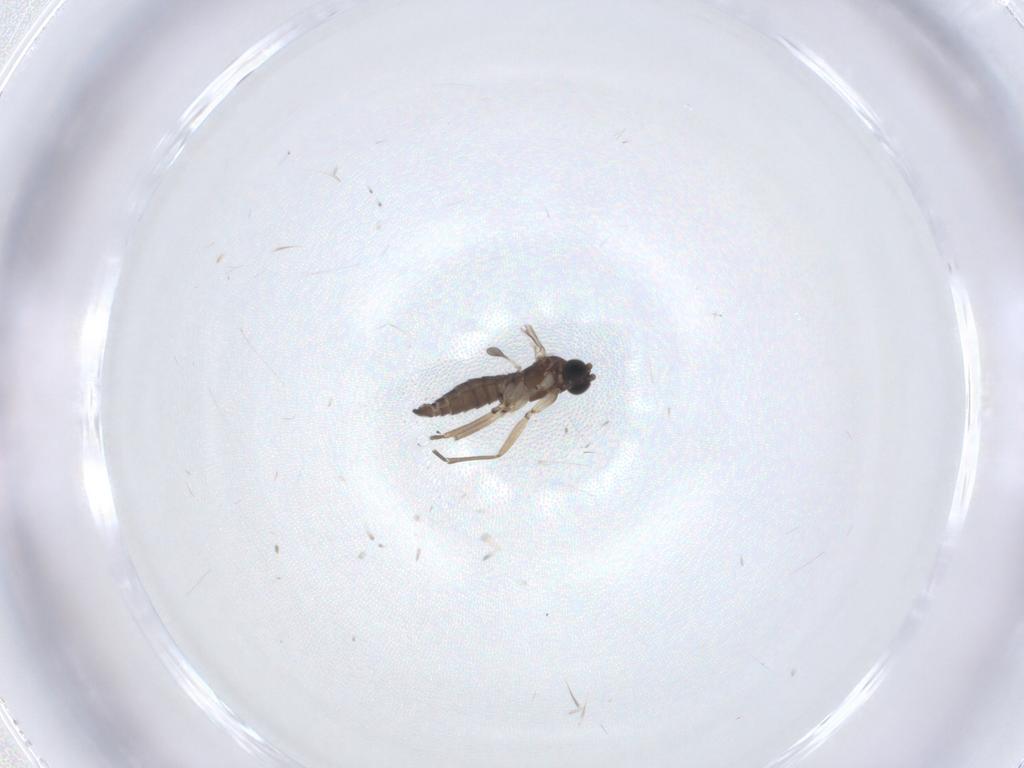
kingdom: Animalia
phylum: Arthropoda
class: Insecta
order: Diptera
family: Sciaridae
